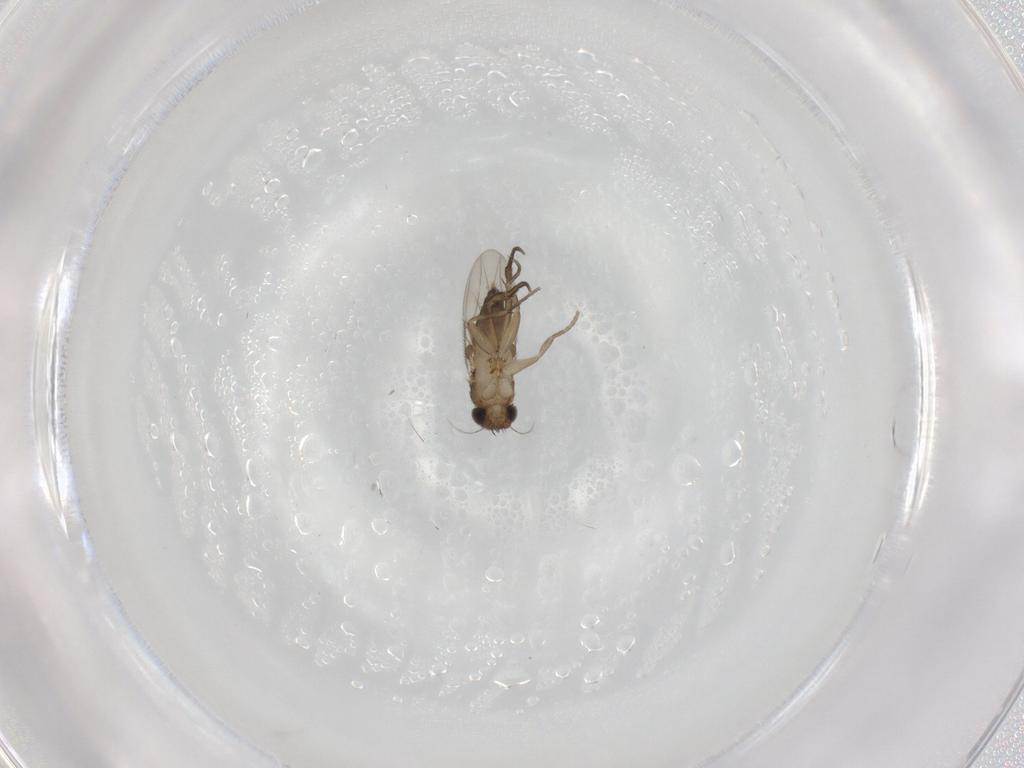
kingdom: Animalia
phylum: Arthropoda
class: Insecta
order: Diptera
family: Phoridae
